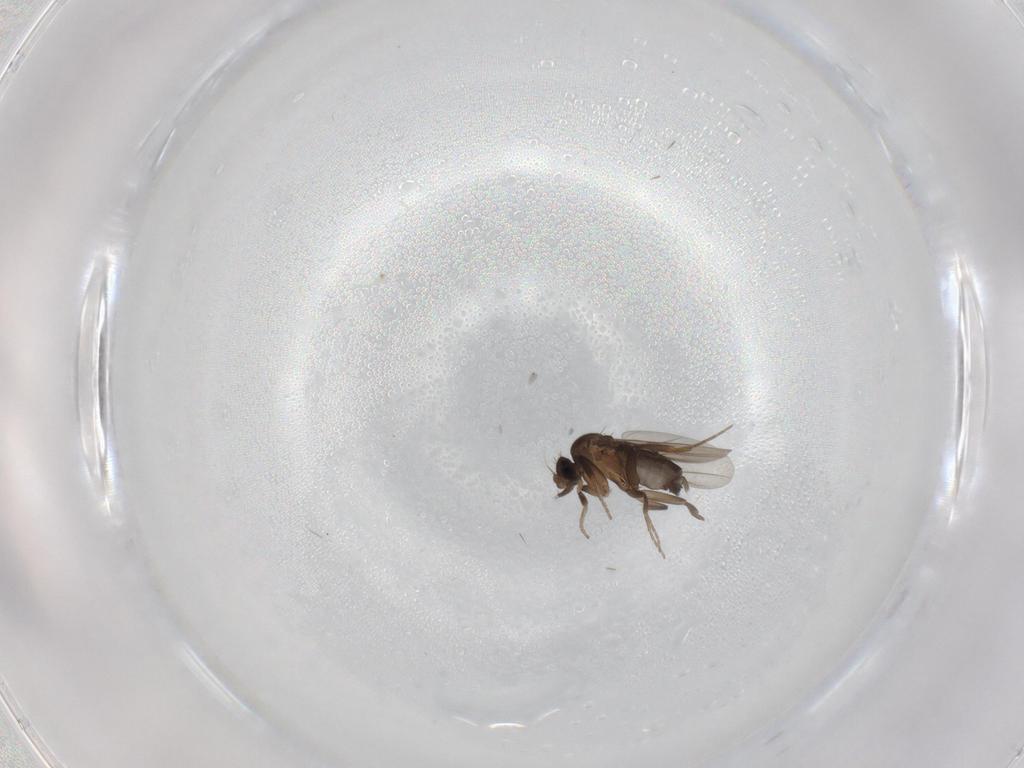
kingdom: Animalia
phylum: Arthropoda
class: Insecta
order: Diptera
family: Phoridae
